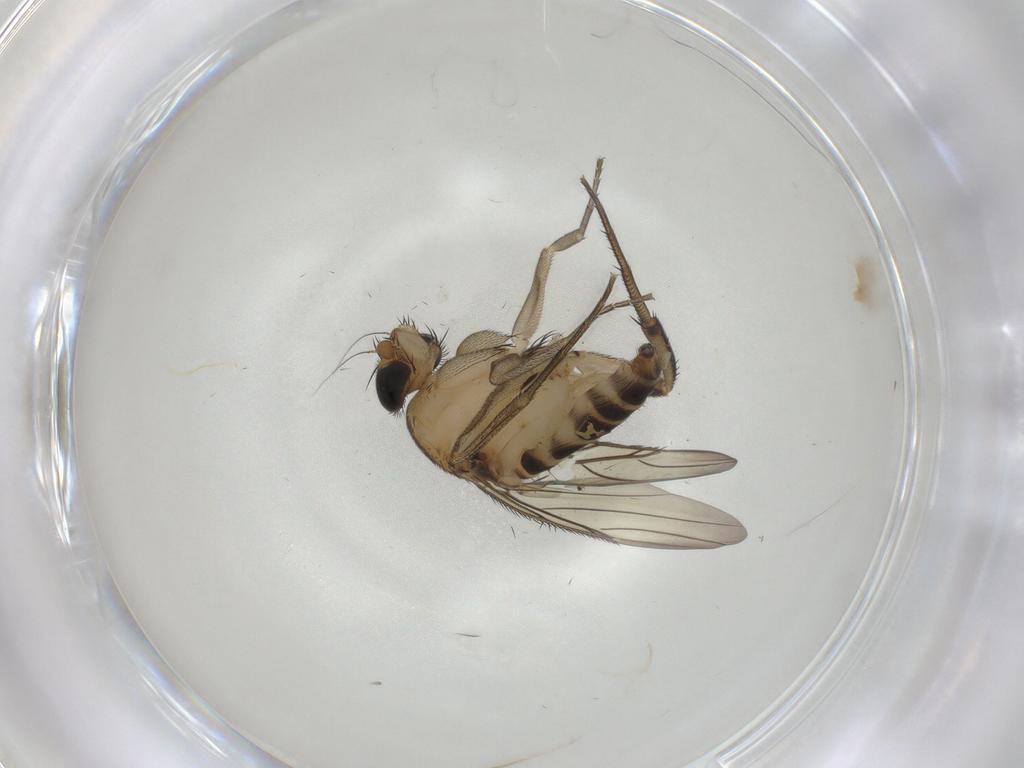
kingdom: Animalia
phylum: Arthropoda
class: Insecta
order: Diptera
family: Phoridae
